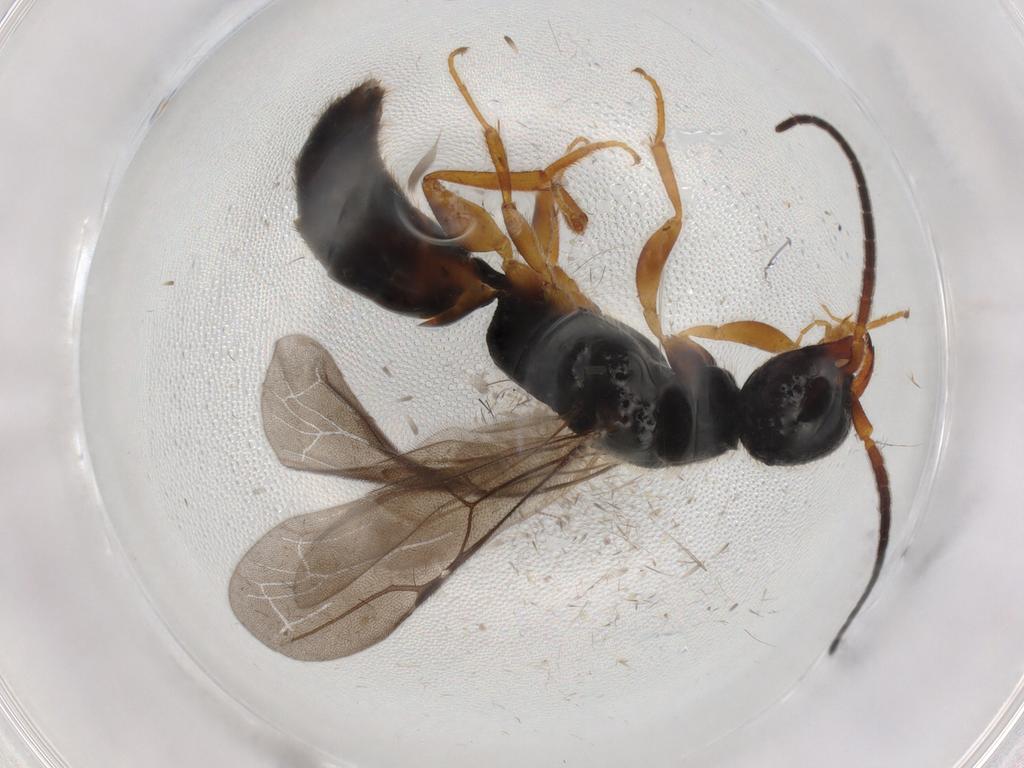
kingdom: Animalia
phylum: Arthropoda
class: Insecta
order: Hymenoptera
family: Bethylidae
